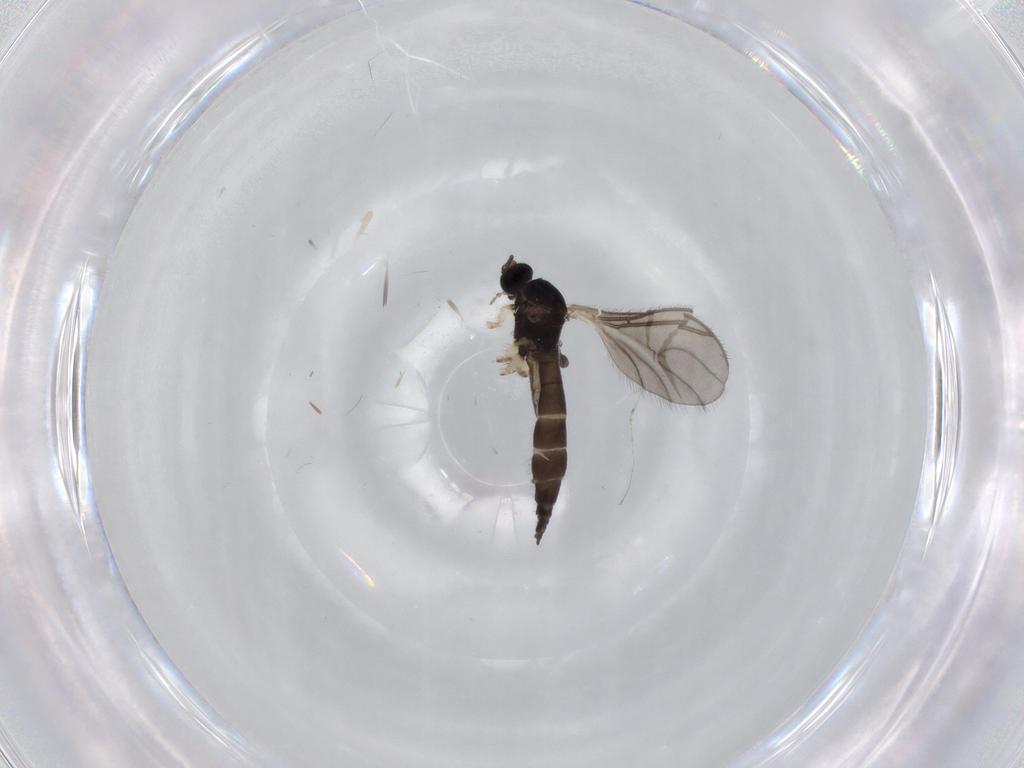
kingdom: Animalia
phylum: Arthropoda
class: Insecta
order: Diptera
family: Sciaridae
